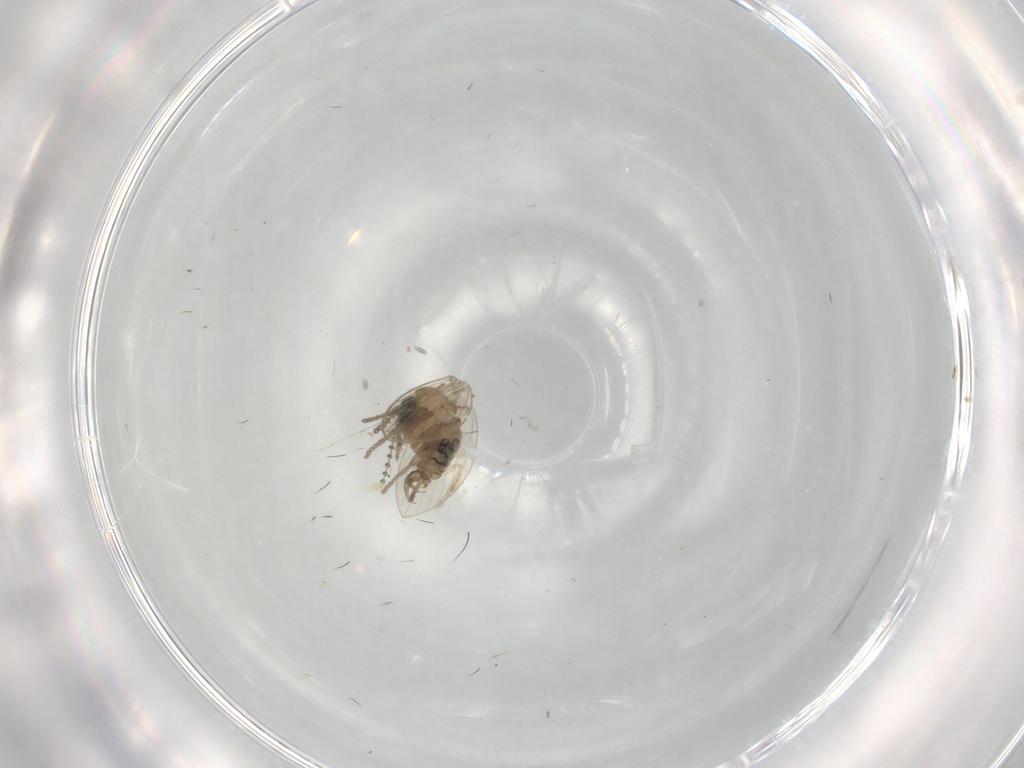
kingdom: Animalia
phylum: Arthropoda
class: Insecta
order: Diptera
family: Psychodidae
